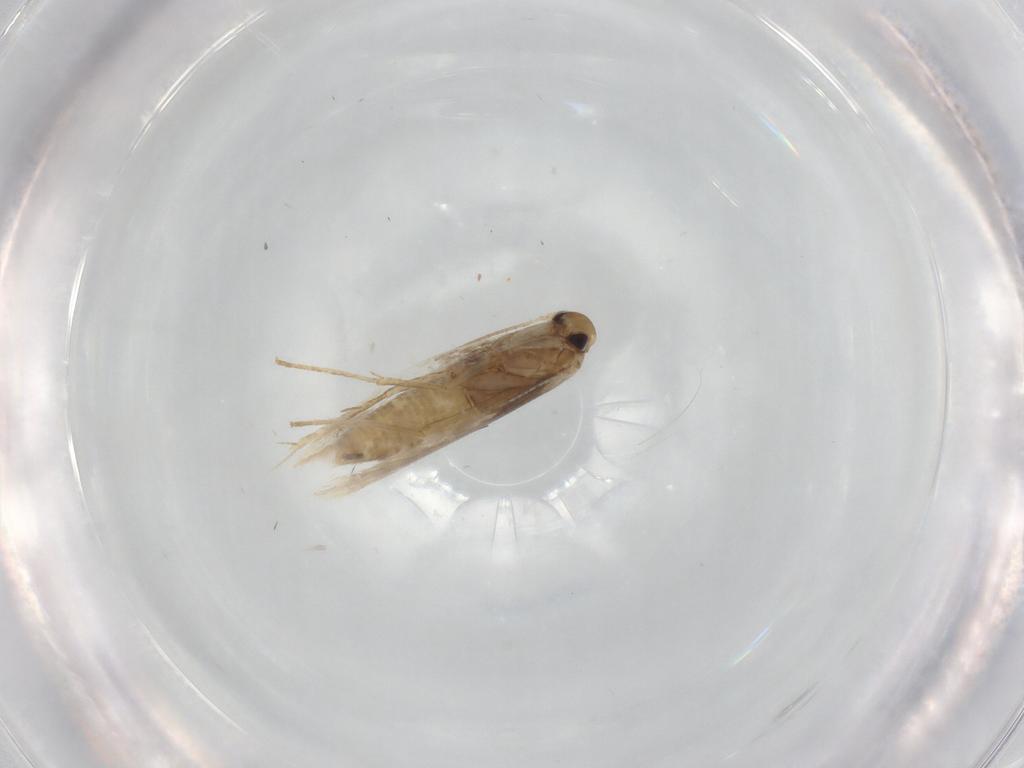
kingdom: Animalia
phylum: Arthropoda
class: Insecta
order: Lepidoptera
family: Gracillariidae
